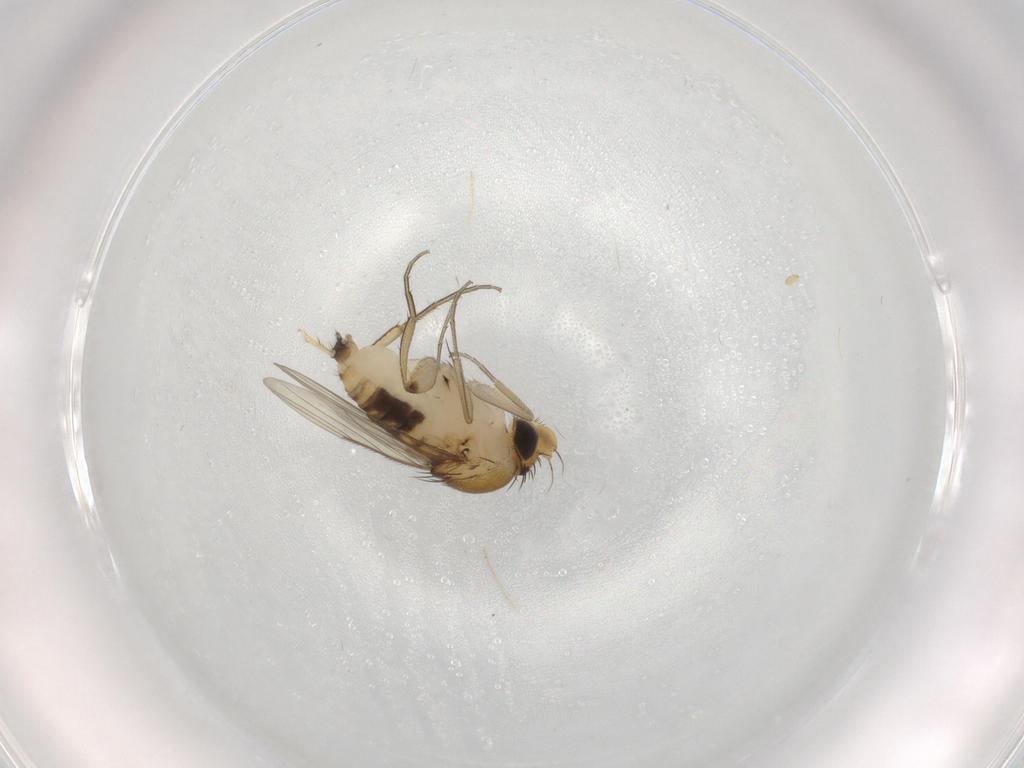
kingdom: Animalia
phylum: Arthropoda
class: Insecta
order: Diptera
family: Phoridae
